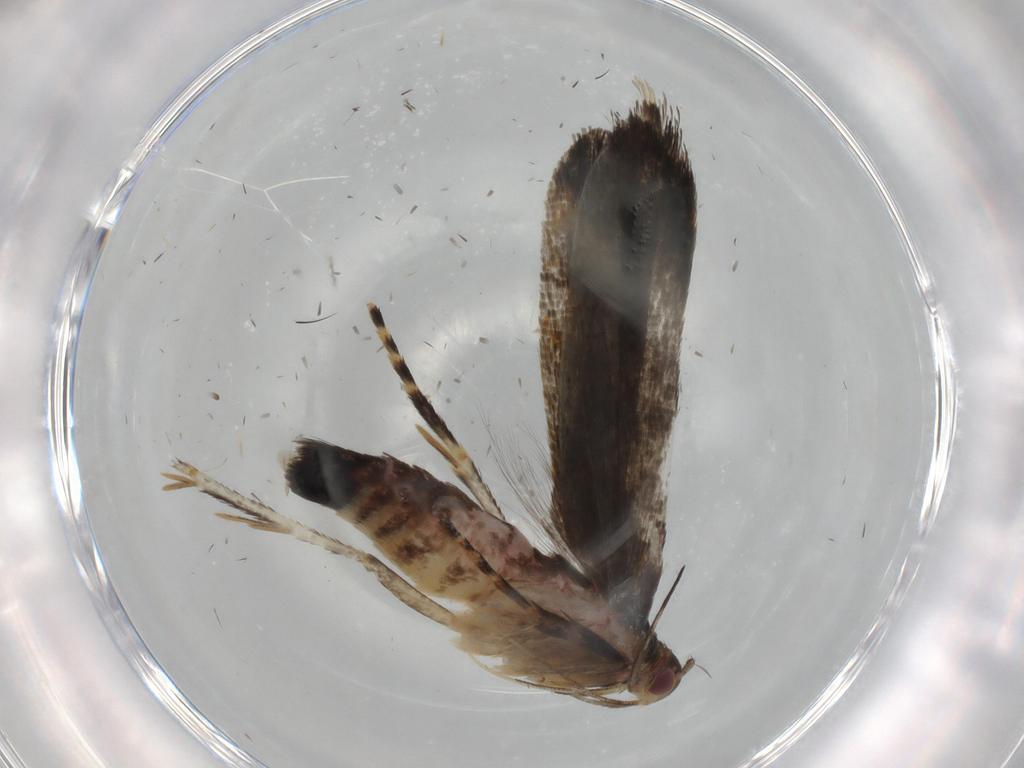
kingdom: Animalia
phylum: Arthropoda
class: Insecta
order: Lepidoptera
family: Gelechiidae
